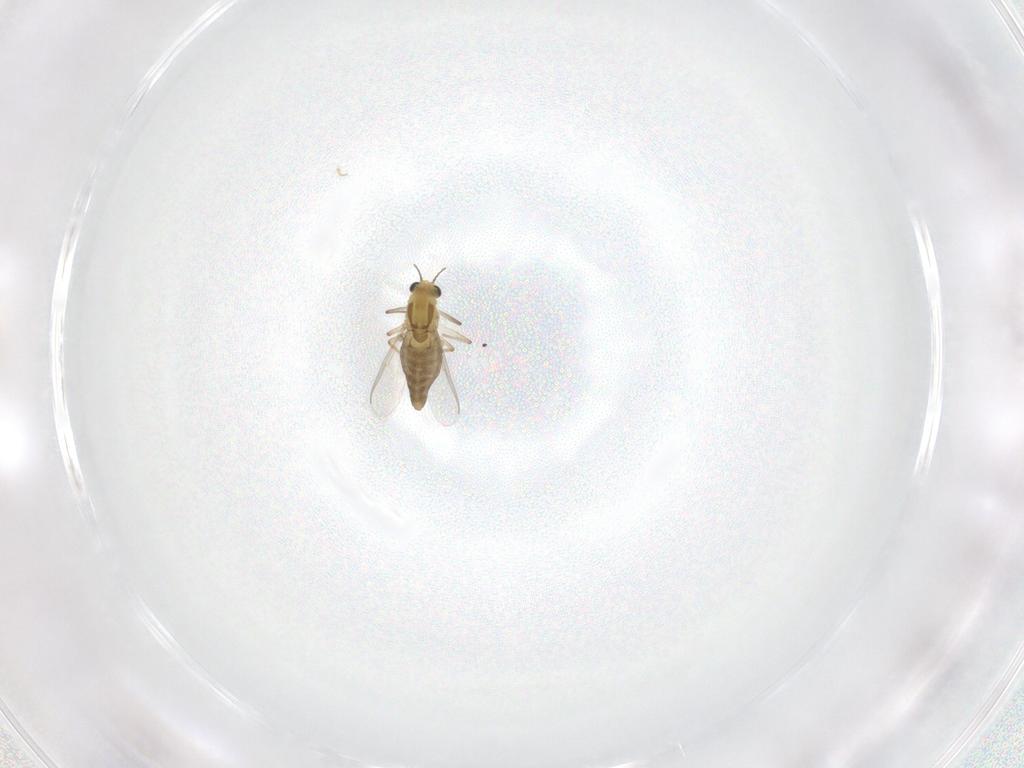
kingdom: Animalia
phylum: Arthropoda
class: Insecta
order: Diptera
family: Chironomidae
